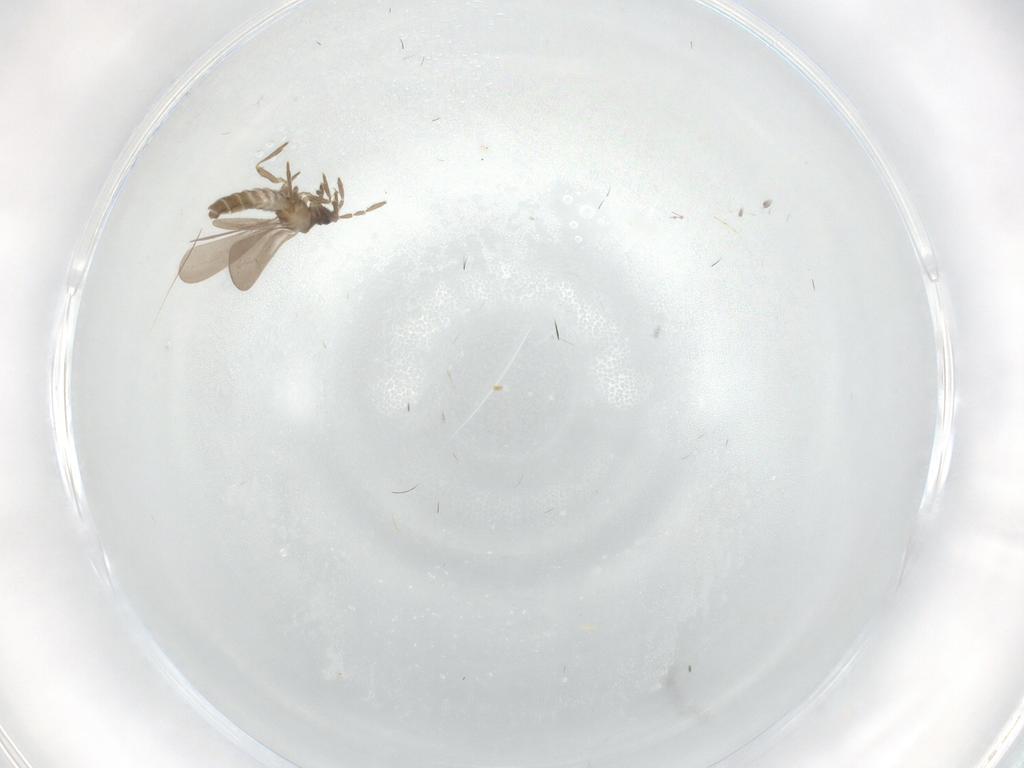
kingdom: Animalia
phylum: Arthropoda
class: Insecta
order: Diptera
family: Cecidomyiidae
